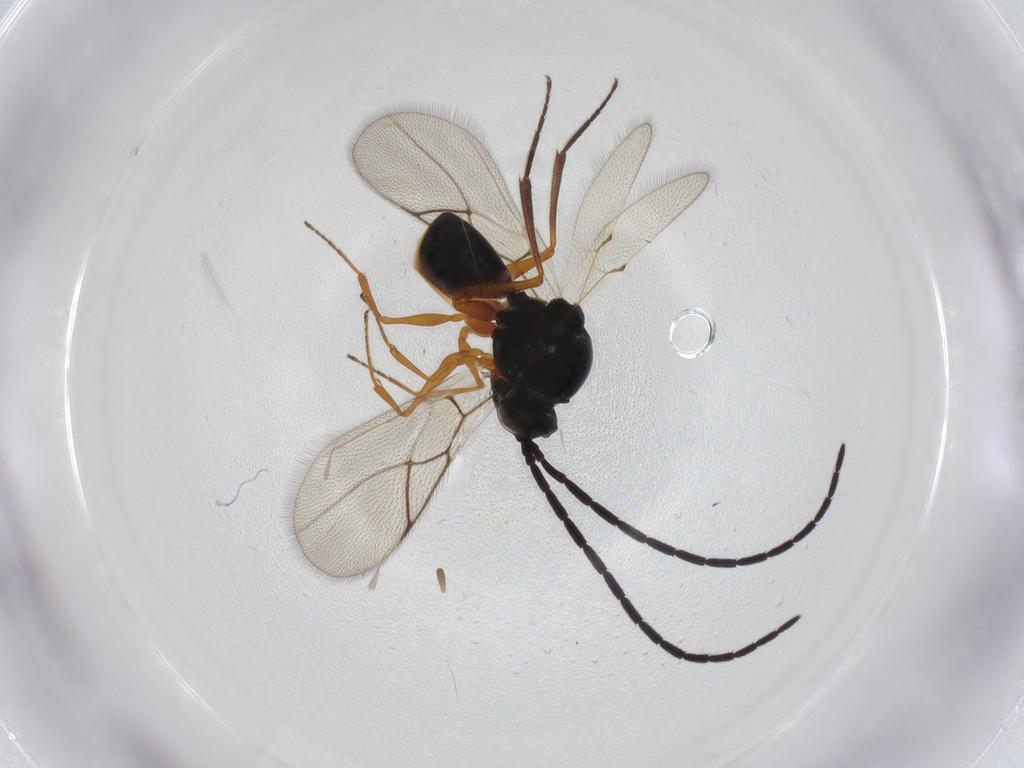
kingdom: Animalia
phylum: Arthropoda
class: Insecta
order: Hymenoptera
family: Figitidae
